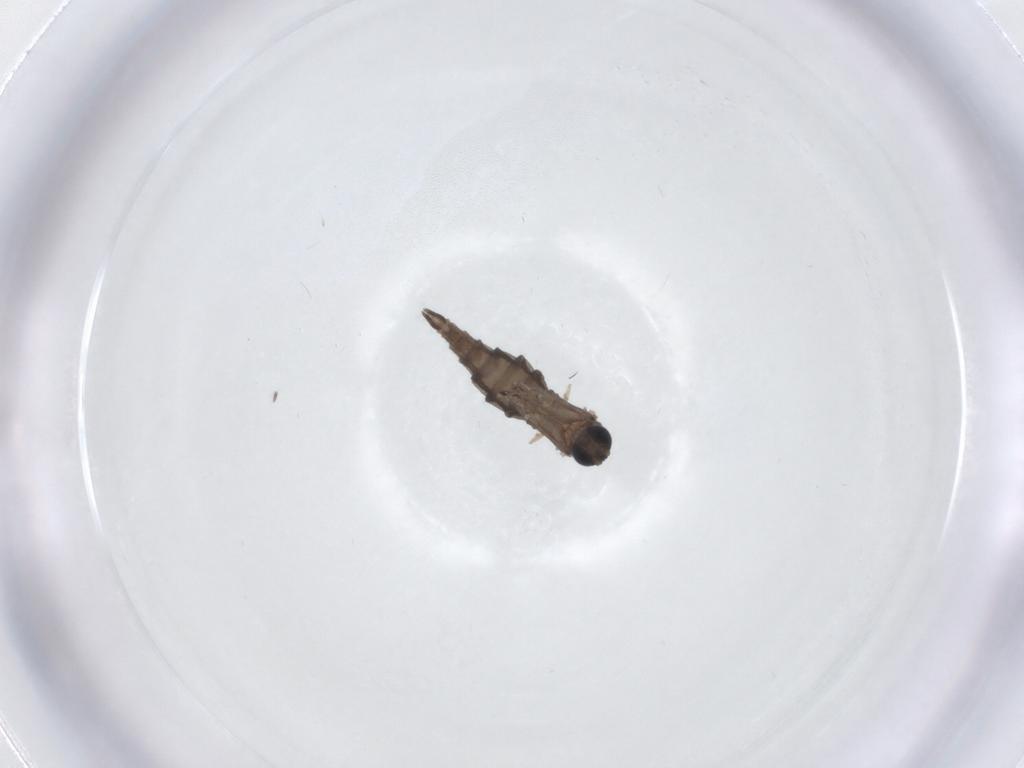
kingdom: Animalia
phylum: Arthropoda
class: Insecta
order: Diptera
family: Sciaridae
